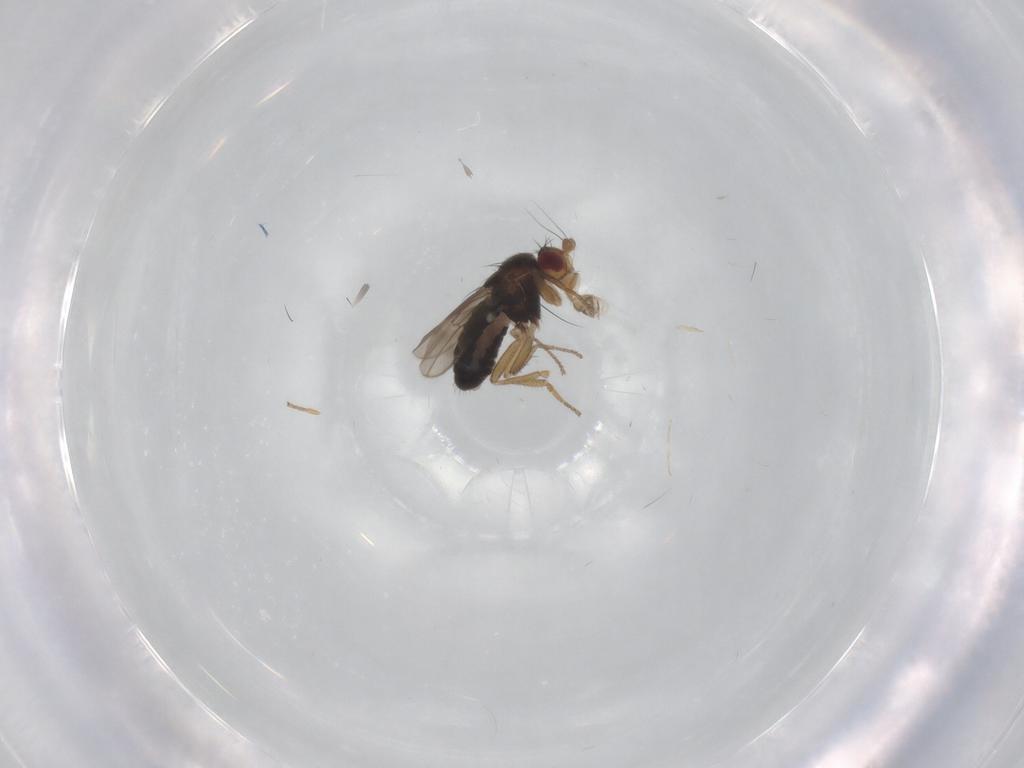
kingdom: Animalia
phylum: Arthropoda
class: Insecta
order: Diptera
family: Sphaeroceridae
